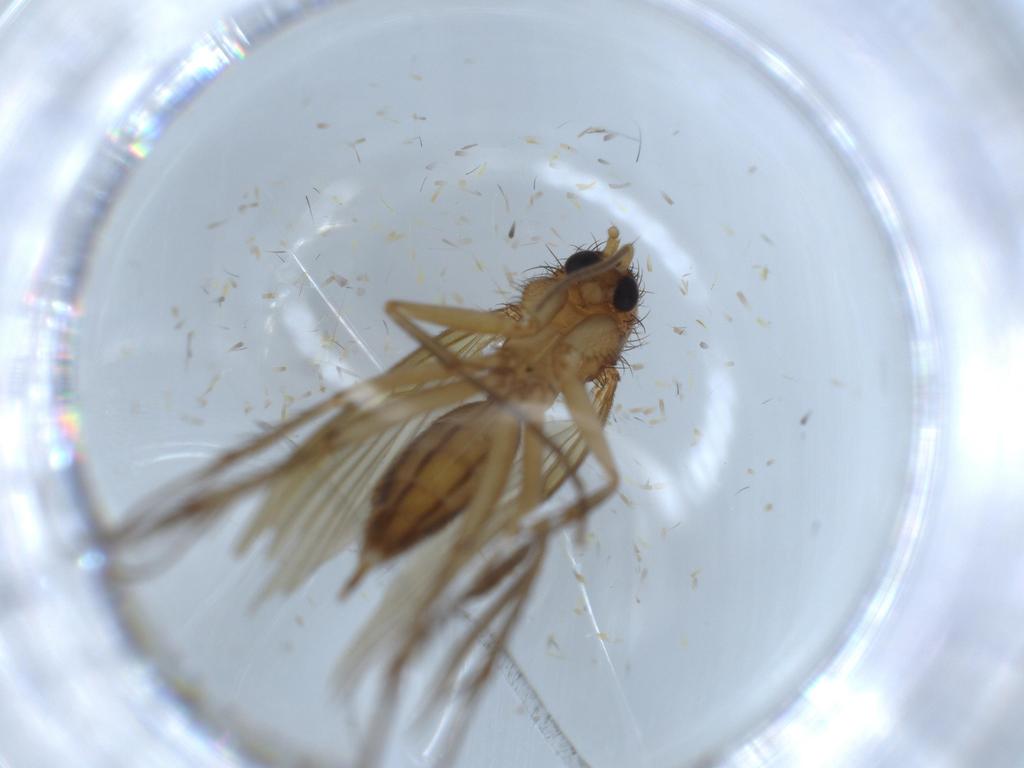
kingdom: Animalia
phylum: Arthropoda
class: Insecta
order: Diptera
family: Mycetophilidae
